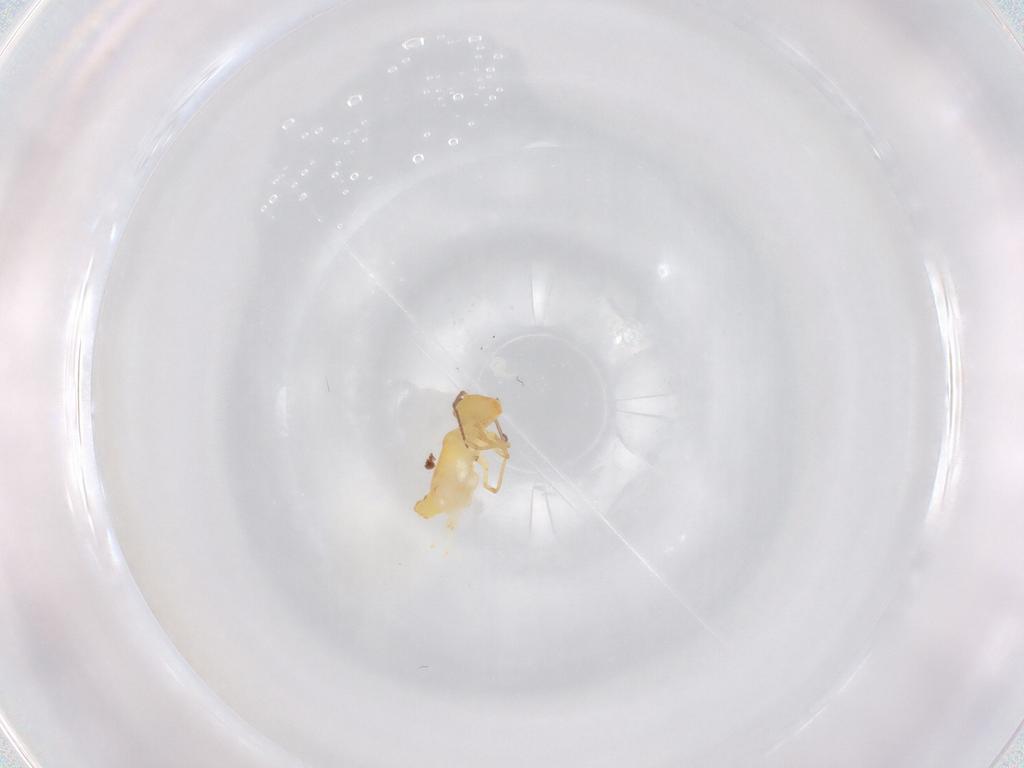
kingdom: Animalia
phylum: Arthropoda
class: Collembola
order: Symphypleona
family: Bourletiellidae
